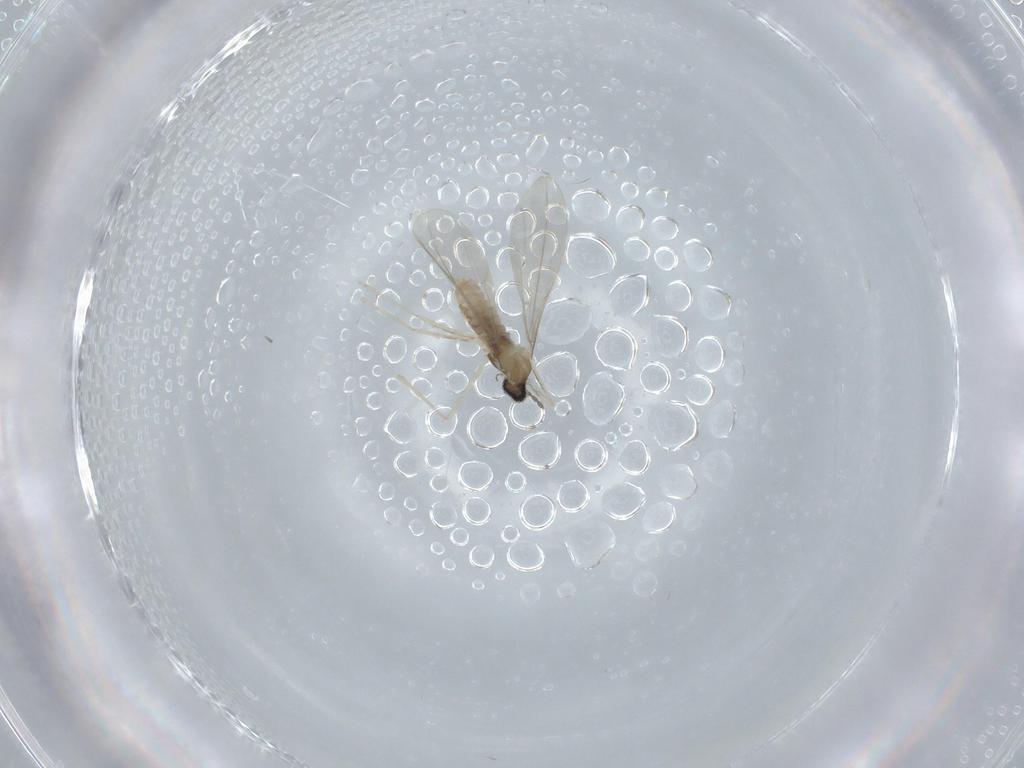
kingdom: Animalia
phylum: Arthropoda
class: Insecta
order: Diptera
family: Cecidomyiidae
